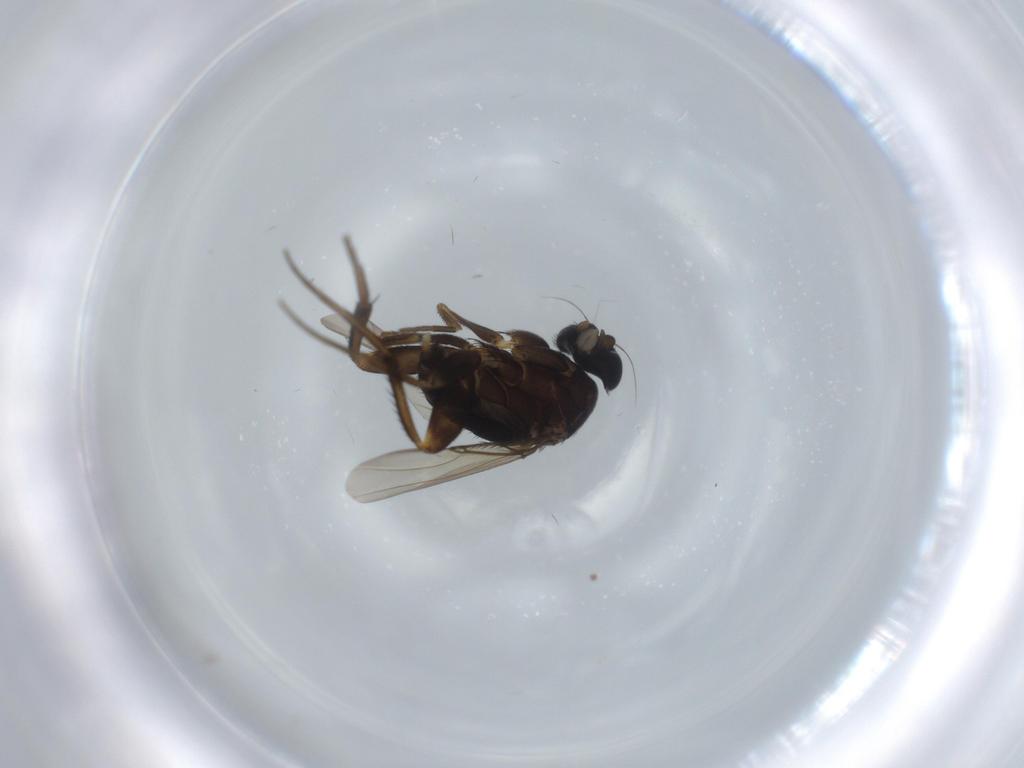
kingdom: Animalia
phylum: Arthropoda
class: Insecta
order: Diptera
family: Phoridae
